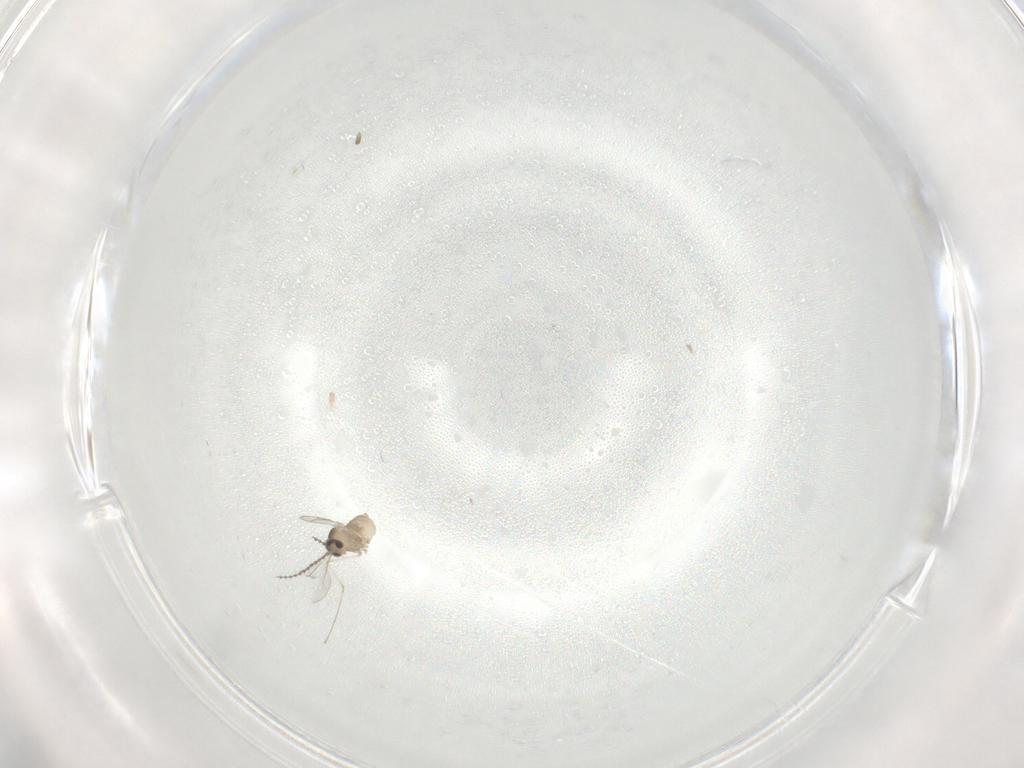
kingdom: Animalia
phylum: Arthropoda
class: Insecta
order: Diptera
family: Cecidomyiidae
